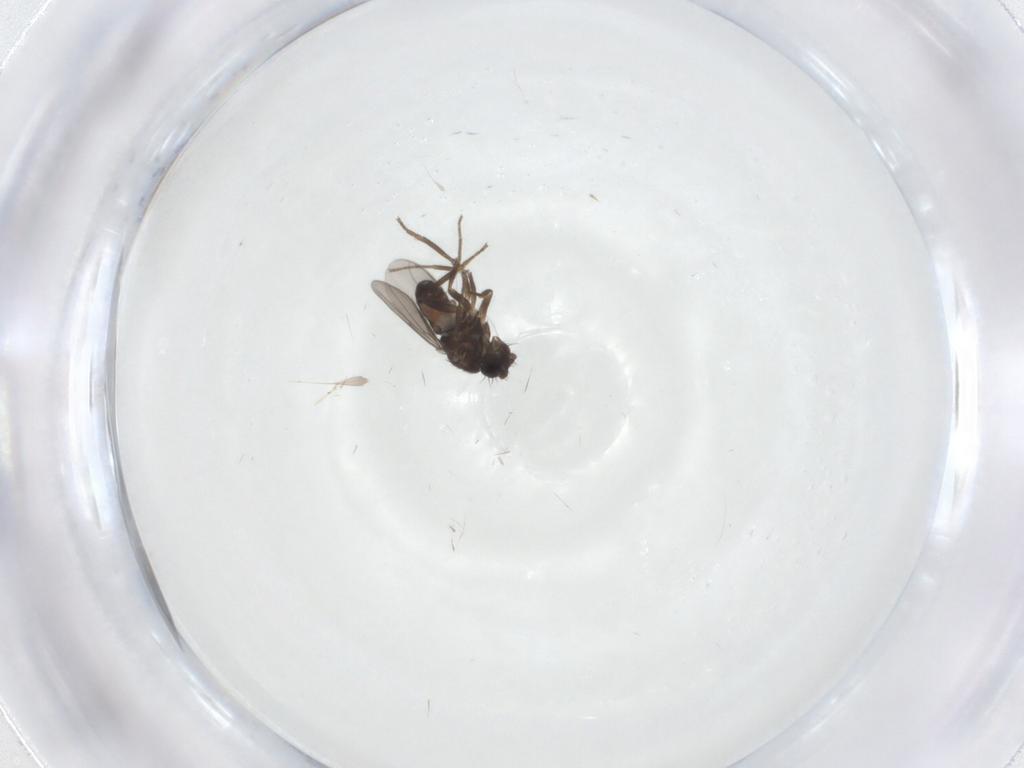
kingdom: Animalia
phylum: Arthropoda
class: Insecta
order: Diptera
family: Sphaeroceridae
